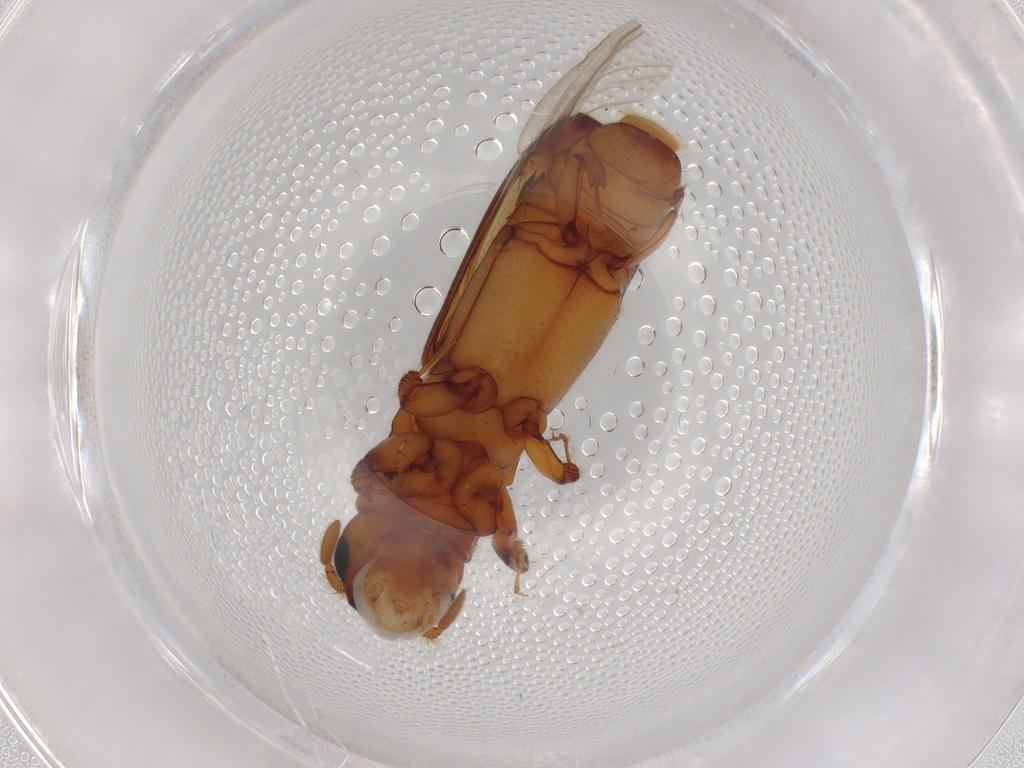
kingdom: Animalia
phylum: Arthropoda
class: Insecta
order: Coleoptera
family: Curculionidae
